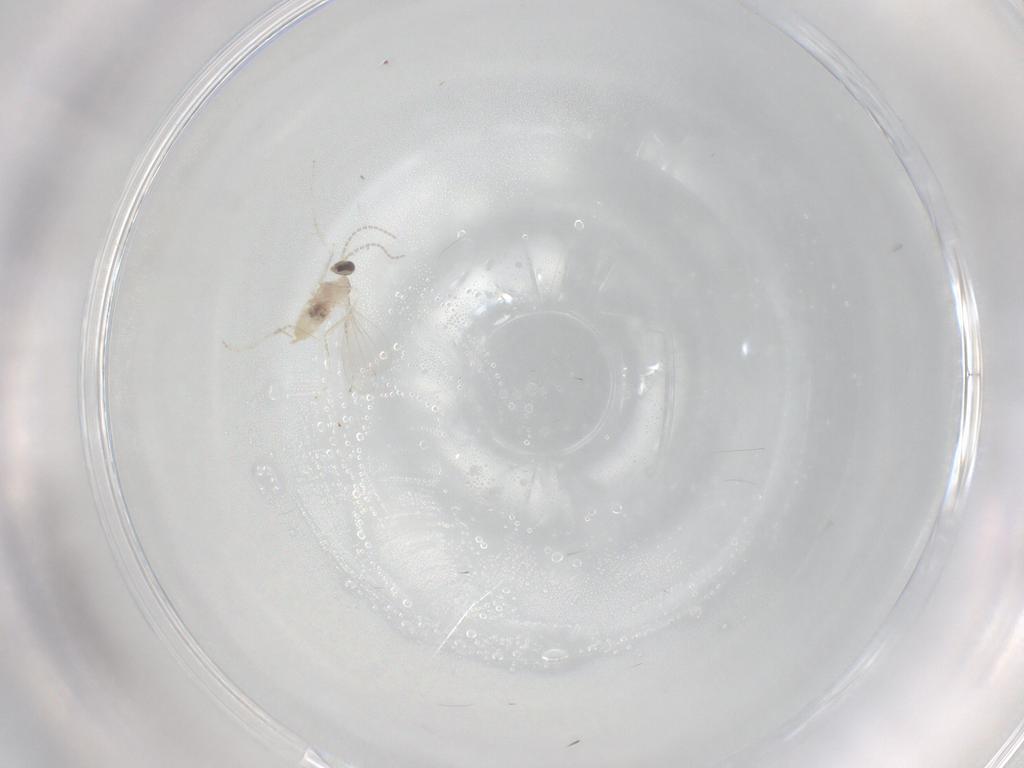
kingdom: Animalia
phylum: Arthropoda
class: Insecta
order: Diptera
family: Cecidomyiidae
